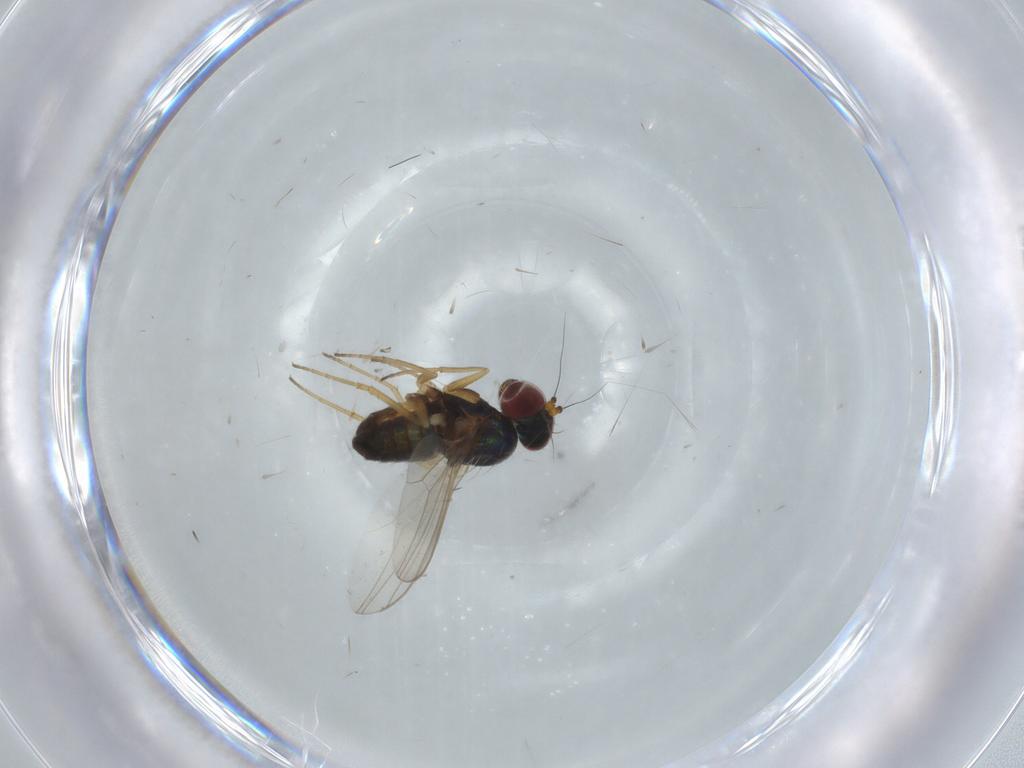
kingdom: Animalia
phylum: Arthropoda
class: Insecta
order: Diptera
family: Dolichopodidae
